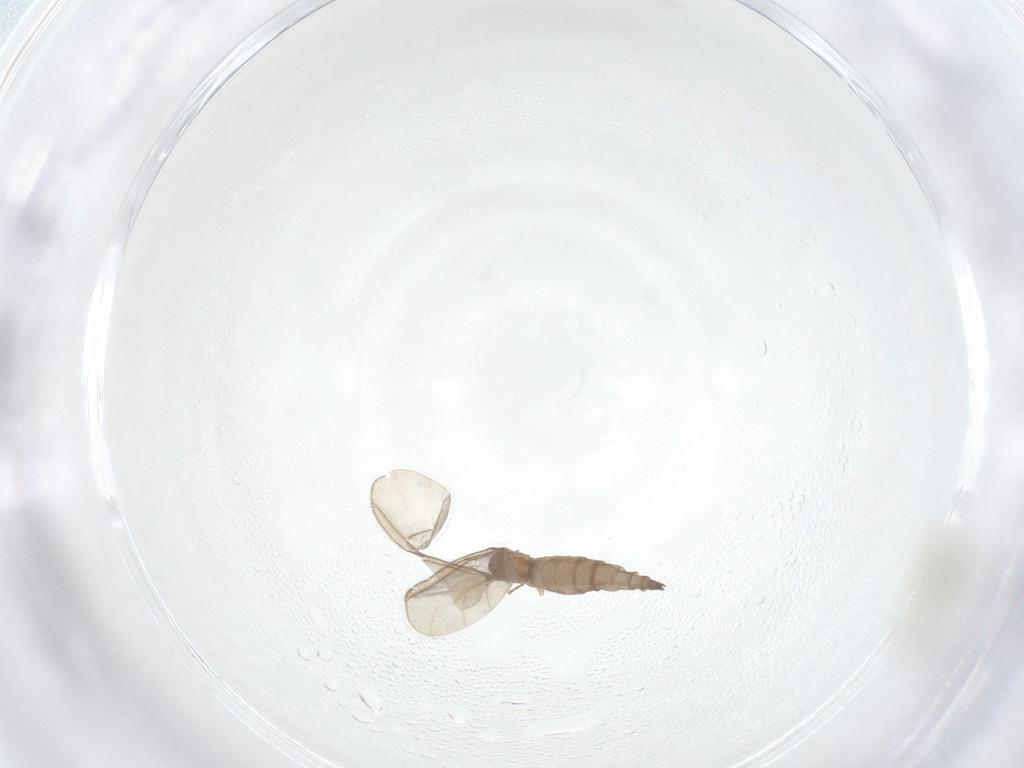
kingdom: Animalia
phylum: Arthropoda
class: Insecta
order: Diptera
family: Sciaridae
